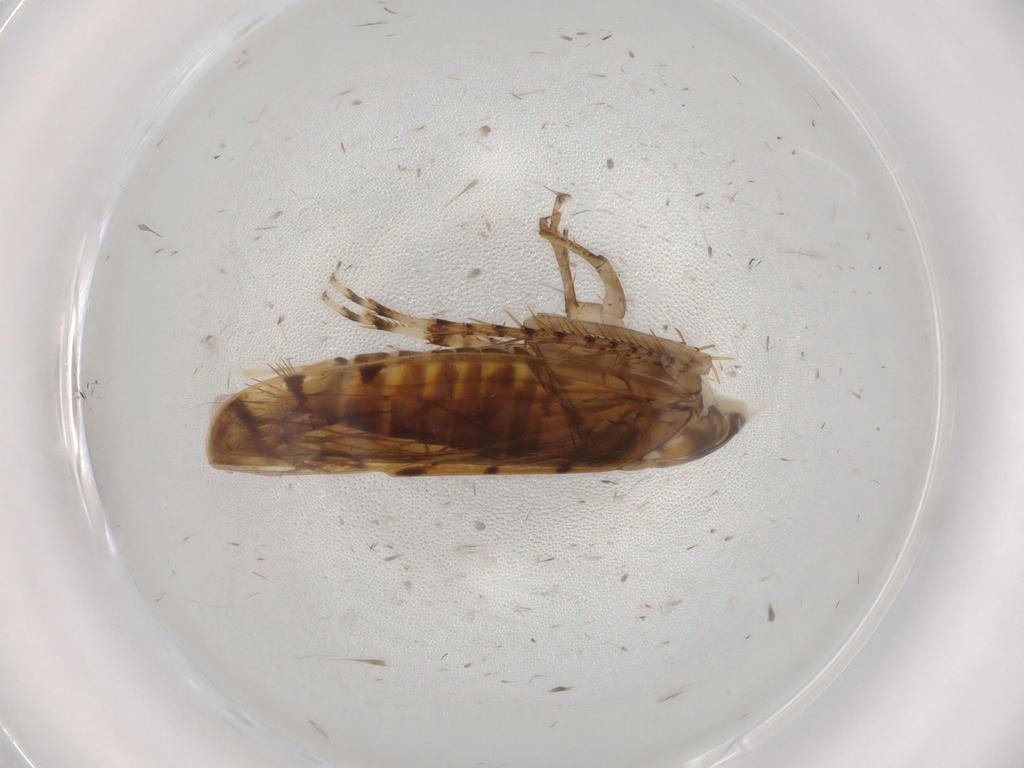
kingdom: Animalia
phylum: Arthropoda
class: Insecta
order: Hemiptera
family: Cicadellidae
